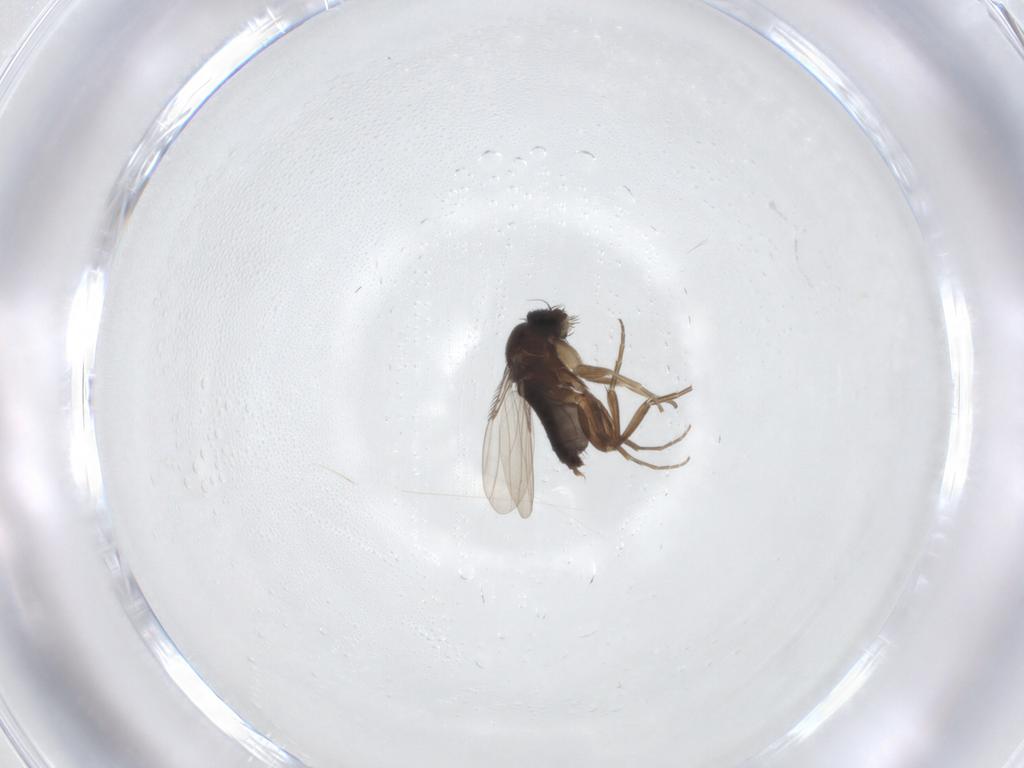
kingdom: Animalia
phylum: Arthropoda
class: Insecta
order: Diptera
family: Phoridae
